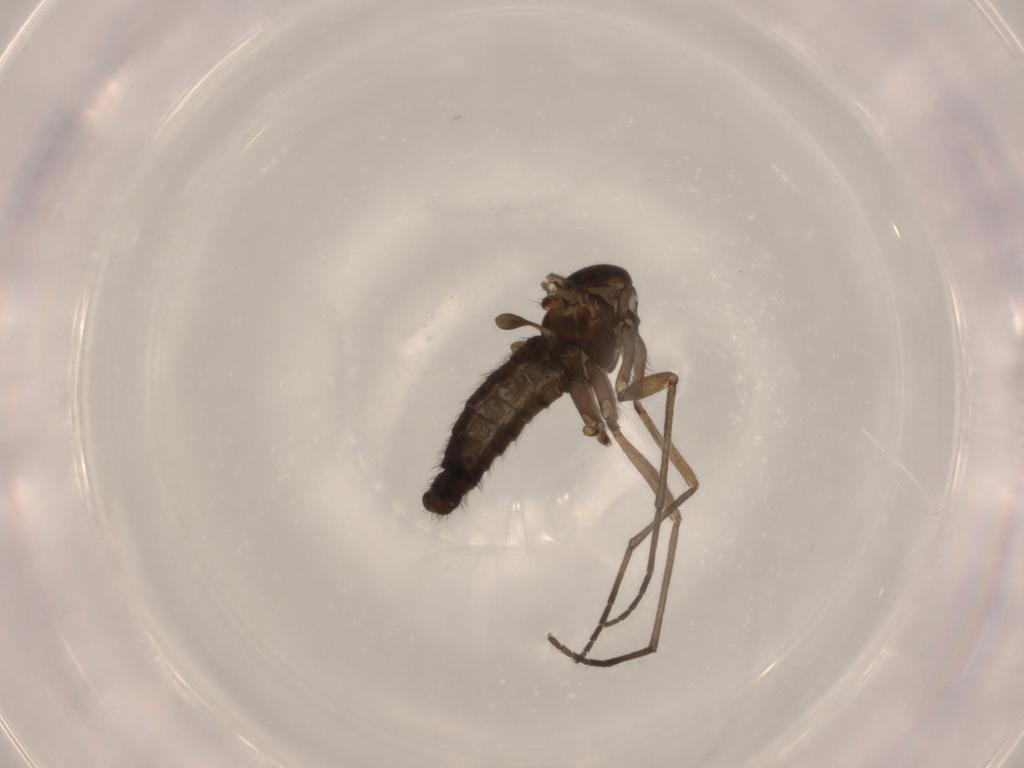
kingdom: Animalia
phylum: Arthropoda
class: Insecta
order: Diptera
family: Sciaridae
